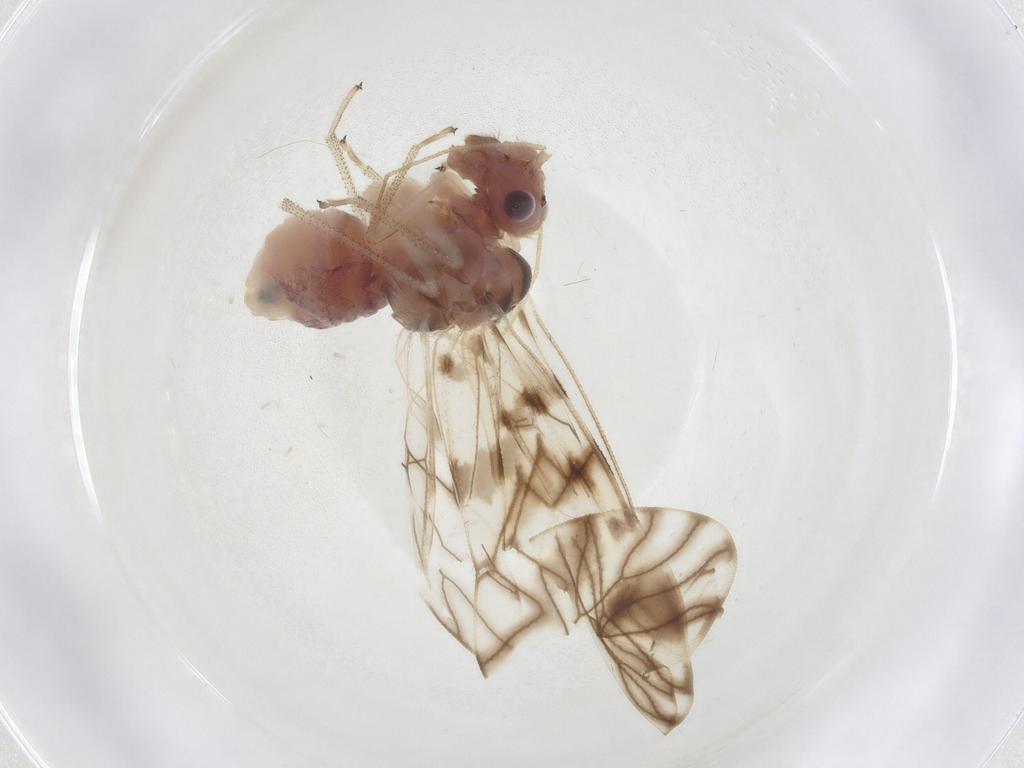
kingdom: Animalia
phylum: Arthropoda
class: Insecta
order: Psocodea
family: Amphipsocidae
